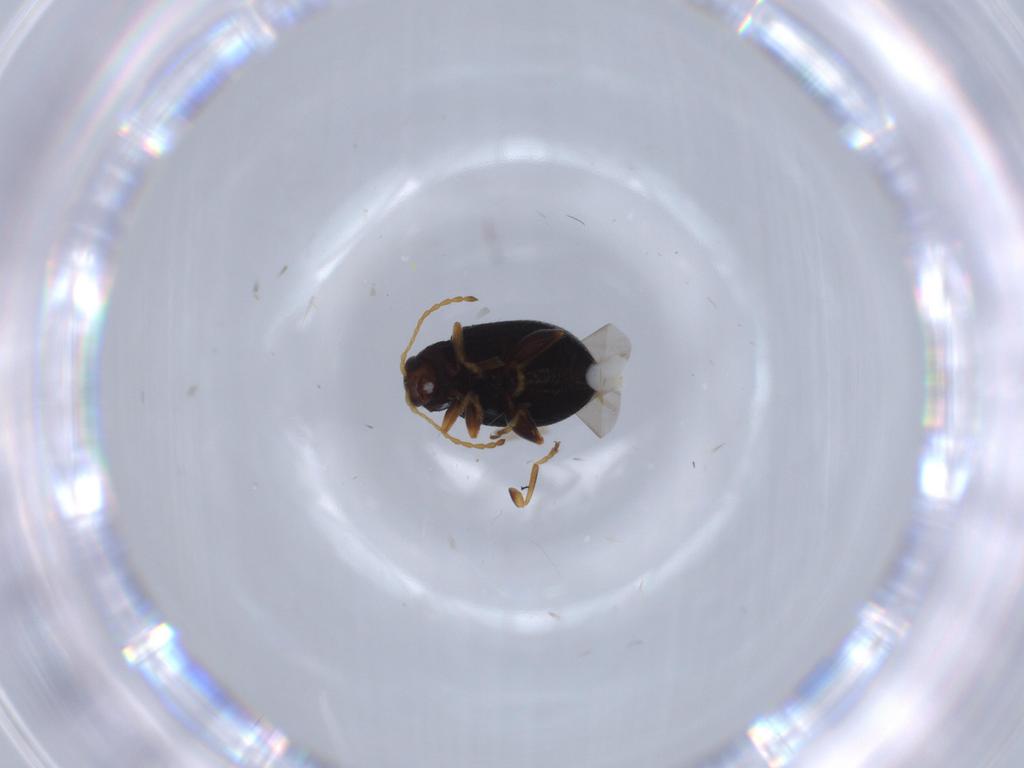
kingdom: Animalia
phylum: Arthropoda
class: Insecta
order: Coleoptera
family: Chrysomelidae
